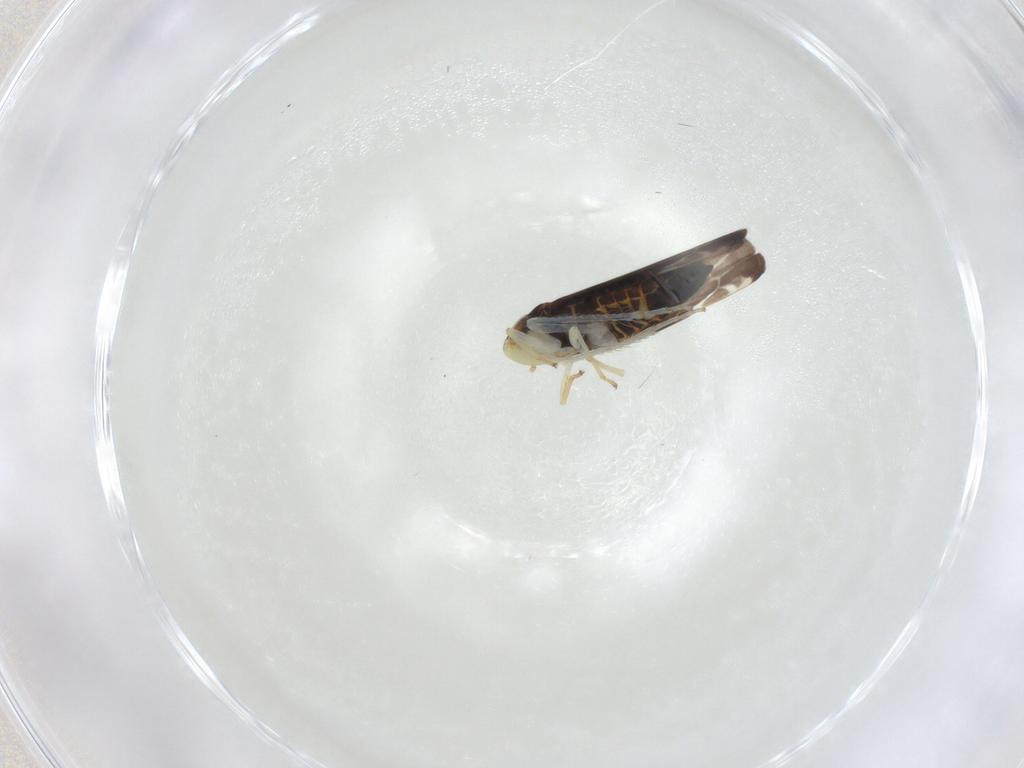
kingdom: Animalia
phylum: Arthropoda
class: Insecta
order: Hemiptera
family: Cicadellidae
